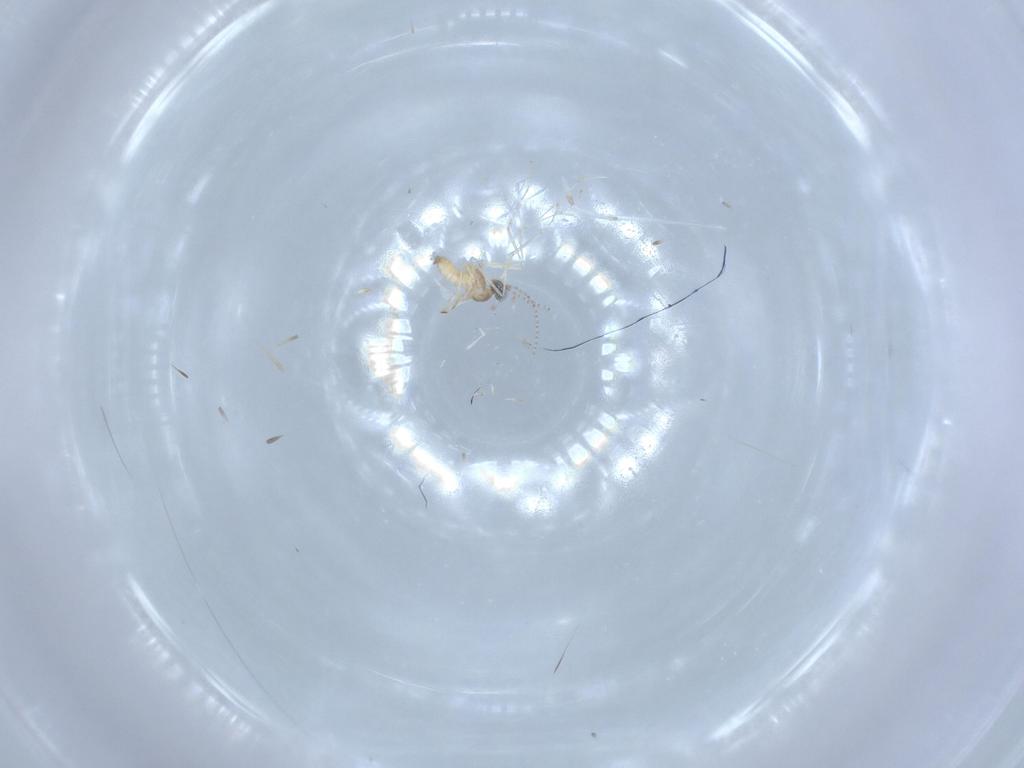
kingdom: Animalia
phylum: Arthropoda
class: Insecta
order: Diptera
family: Cecidomyiidae
